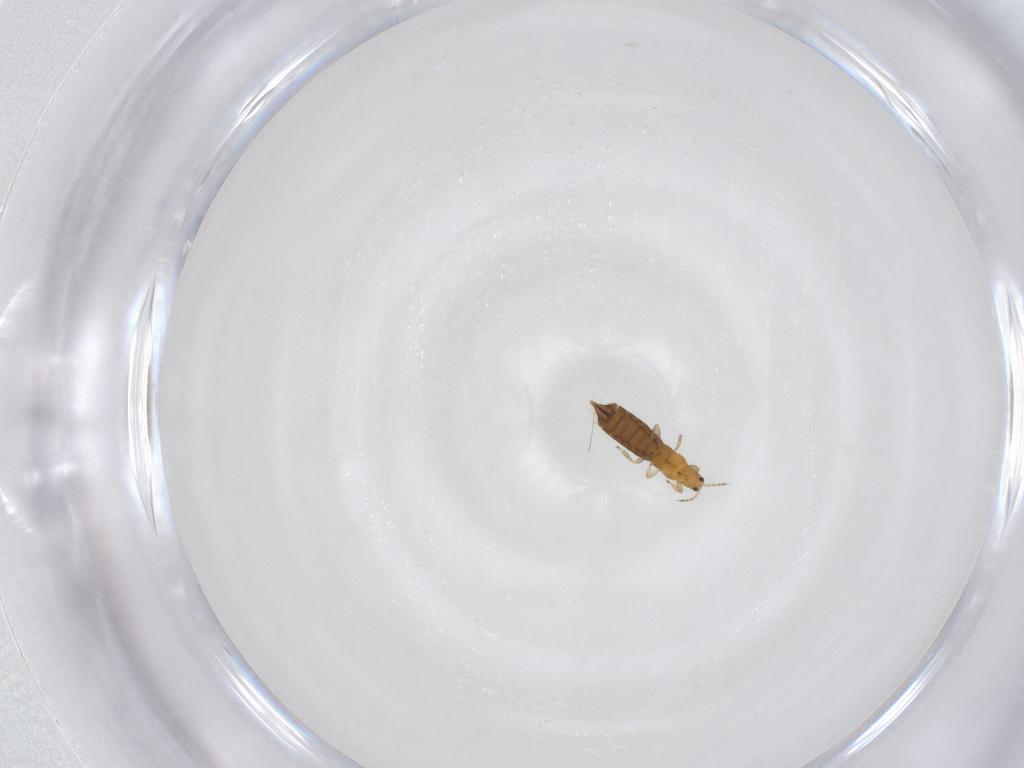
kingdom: Animalia
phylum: Arthropoda
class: Insecta
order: Thysanoptera
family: Thripidae
